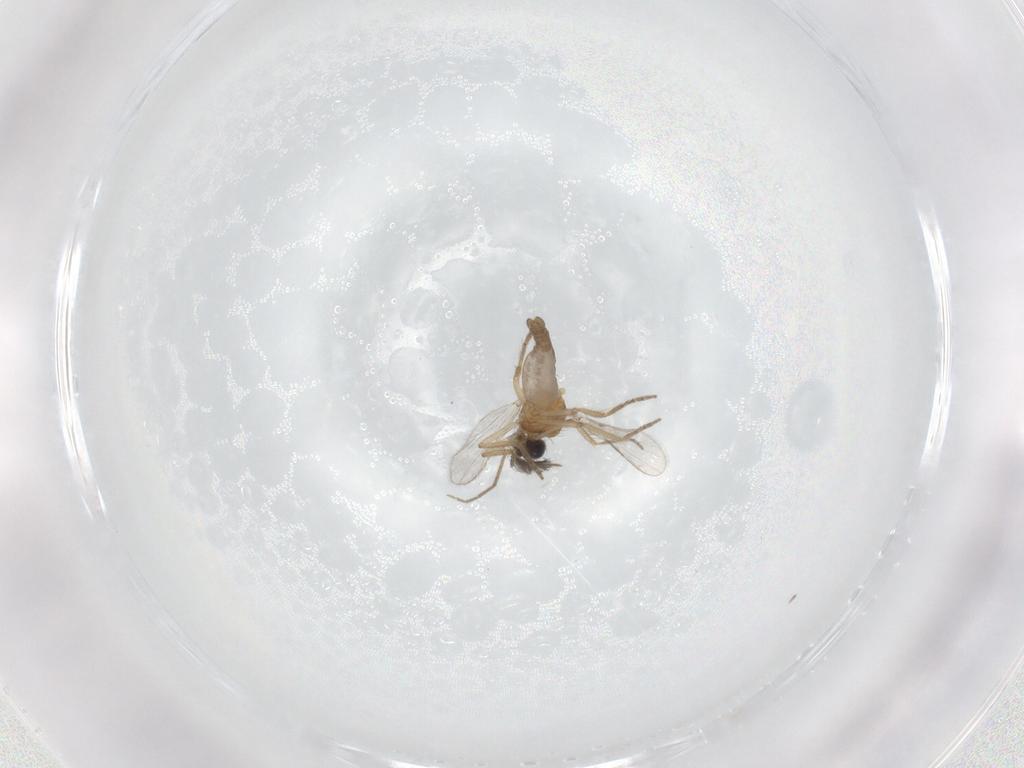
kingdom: Animalia
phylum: Arthropoda
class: Insecta
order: Diptera
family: Ceratopogonidae
